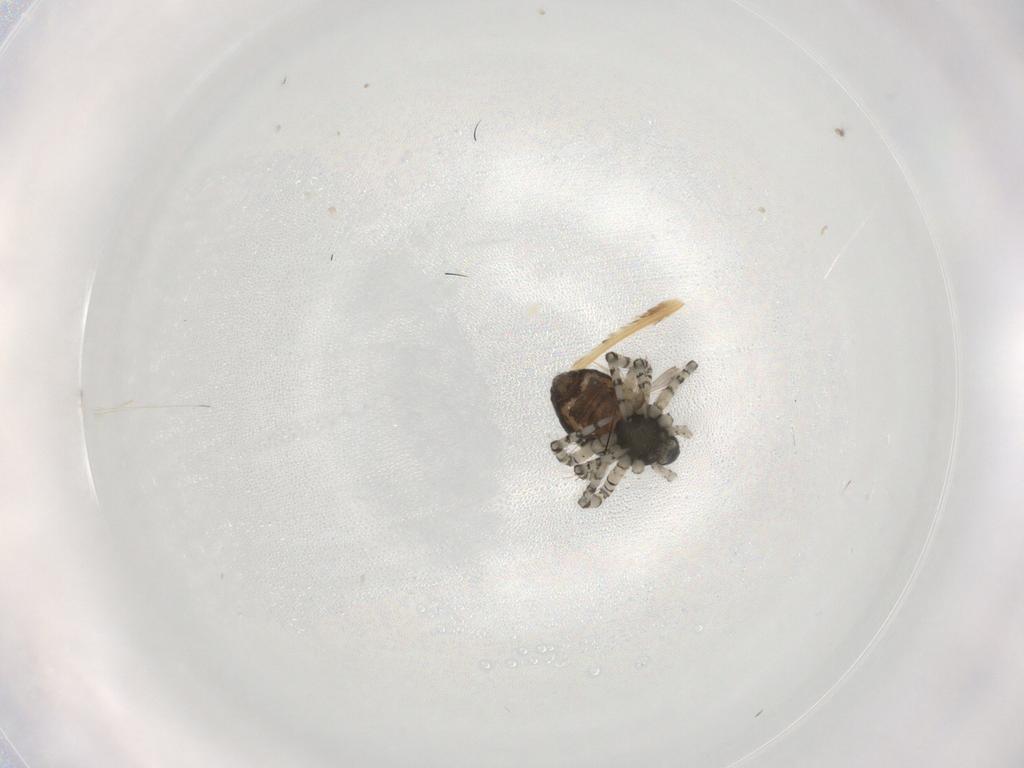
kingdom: Animalia
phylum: Arthropoda
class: Arachnida
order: Araneae
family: Theridiidae
